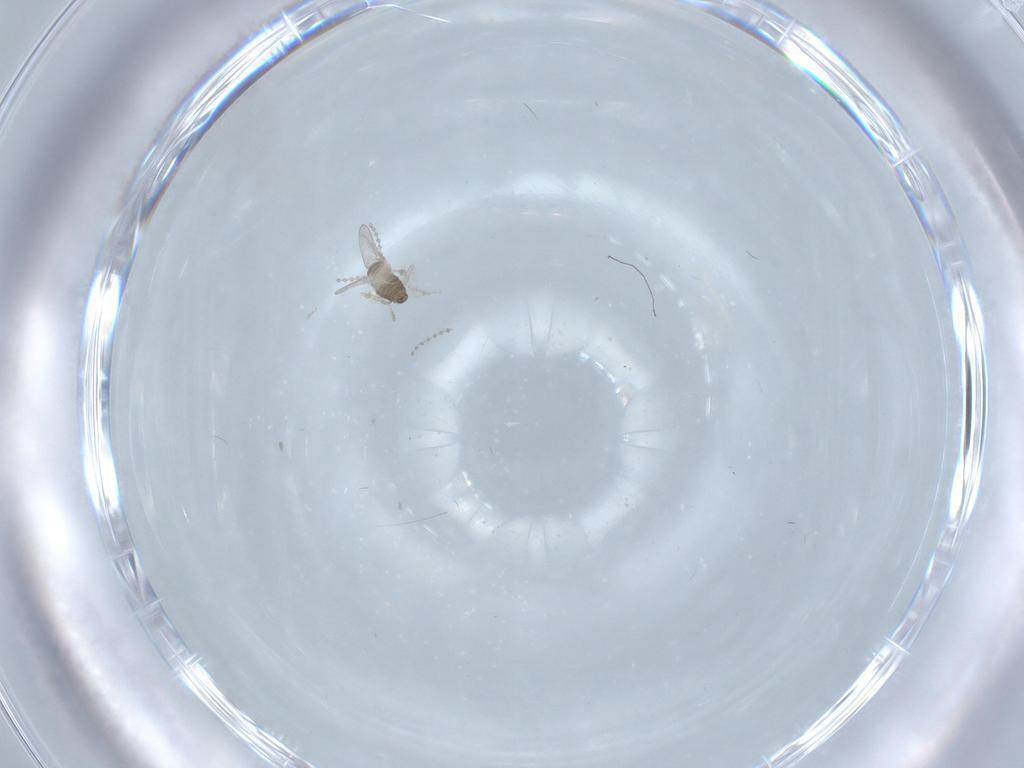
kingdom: Animalia
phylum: Arthropoda
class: Insecta
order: Diptera
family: Cecidomyiidae
